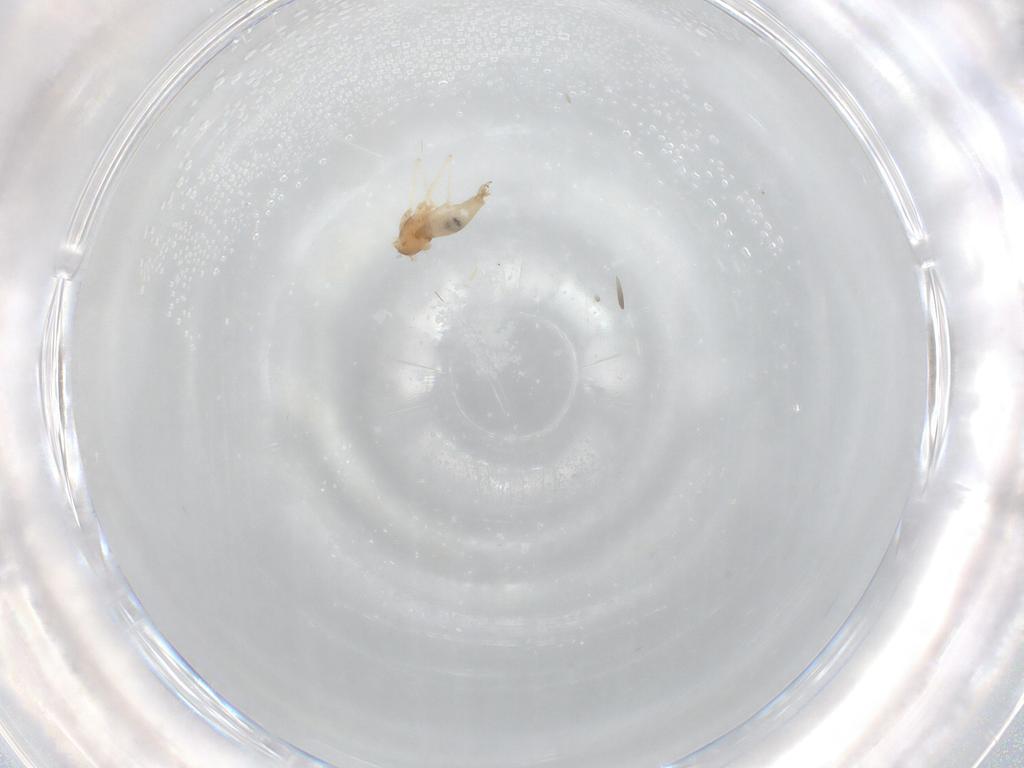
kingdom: Animalia
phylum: Arthropoda
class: Insecta
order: Diptera
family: Cecidomyiidae
